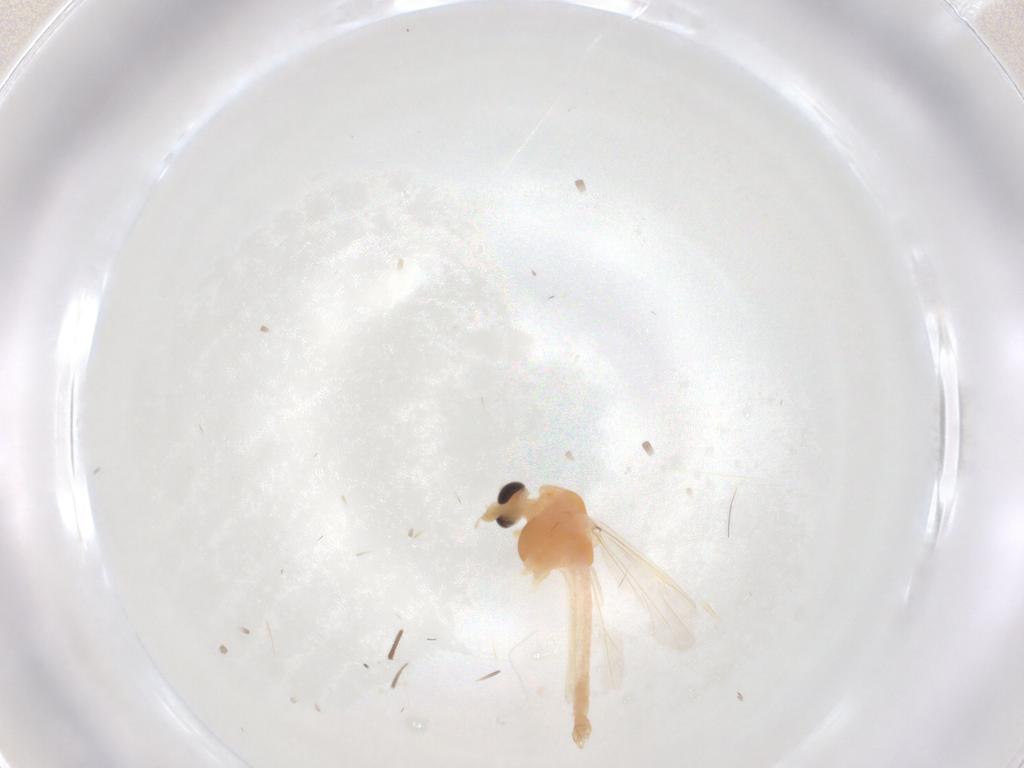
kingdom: Animalia
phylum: Arthropoda
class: Insecta
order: Diptera
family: Chironomidae
